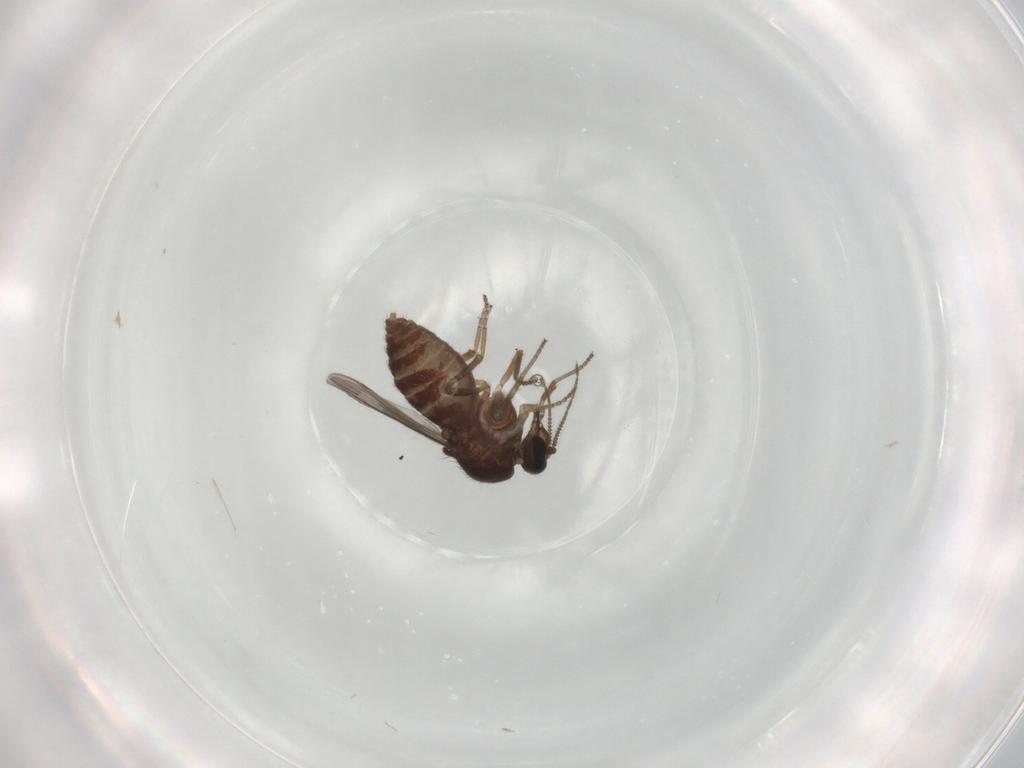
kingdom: Animalia
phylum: Arthropoda
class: Insecta
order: Diptera
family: Ceratopogonidae
